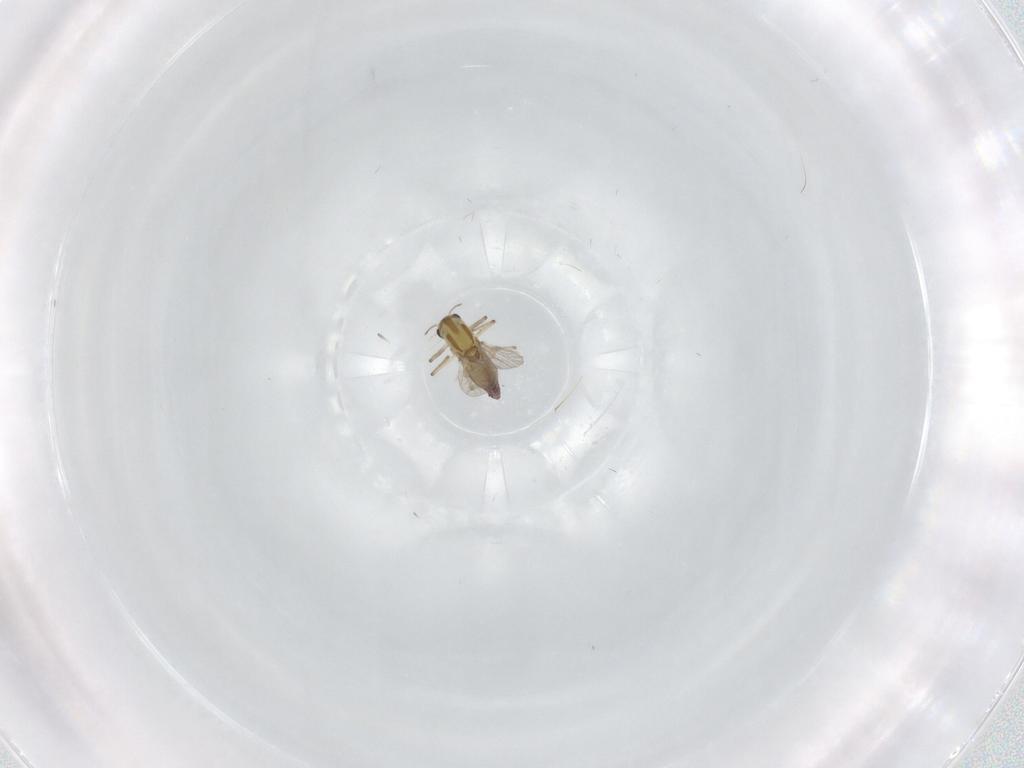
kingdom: Animalia
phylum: Arthropoda
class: Insecta
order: Diptera
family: Chironomidae
